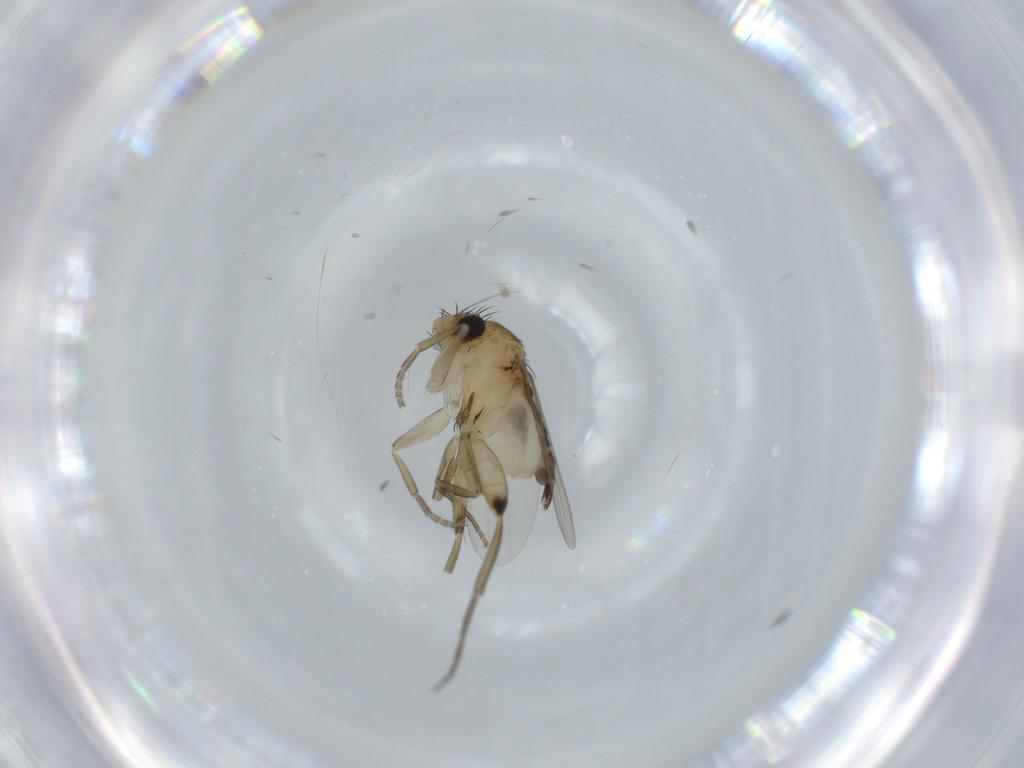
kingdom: Animalia
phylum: Arthropoda
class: Insecta
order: Diptera
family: Phoridae
